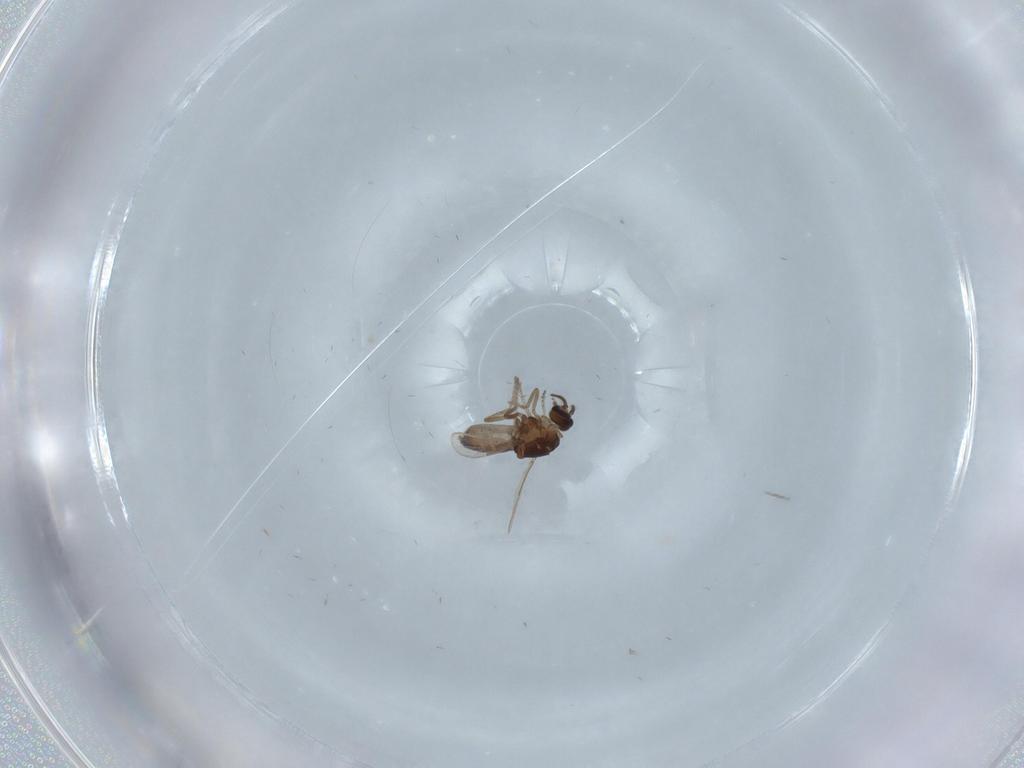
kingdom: Animalia
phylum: Arthropoda
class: Insecta
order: Diptera
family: Ceratopogonidae
